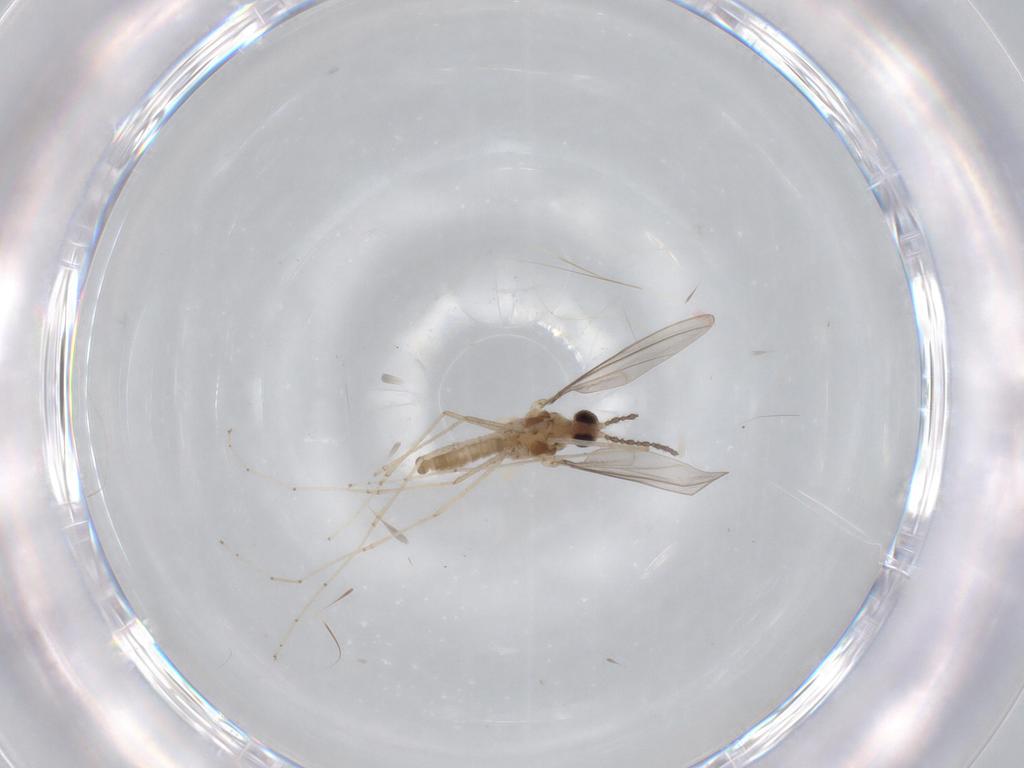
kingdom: Animalia
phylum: Arthropoda
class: Insecta
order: Diptera
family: Cecidomyiidae
